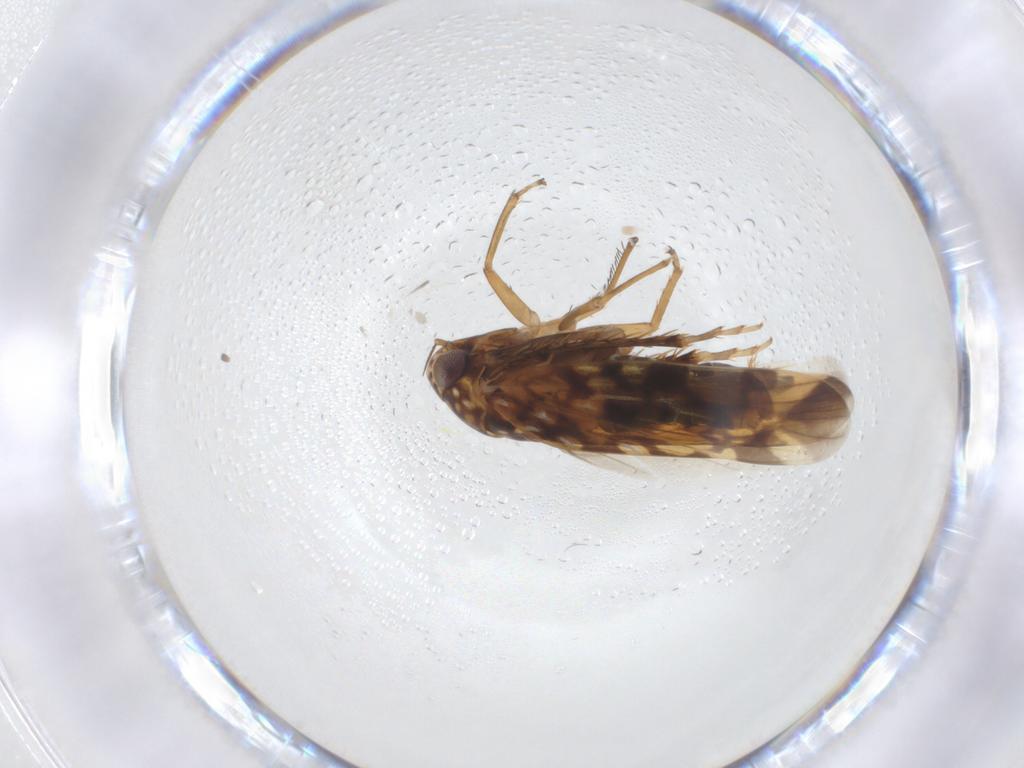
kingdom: Animalia
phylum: Arthropoda
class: Insecta
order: Hemiptera
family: Cicadellidae
